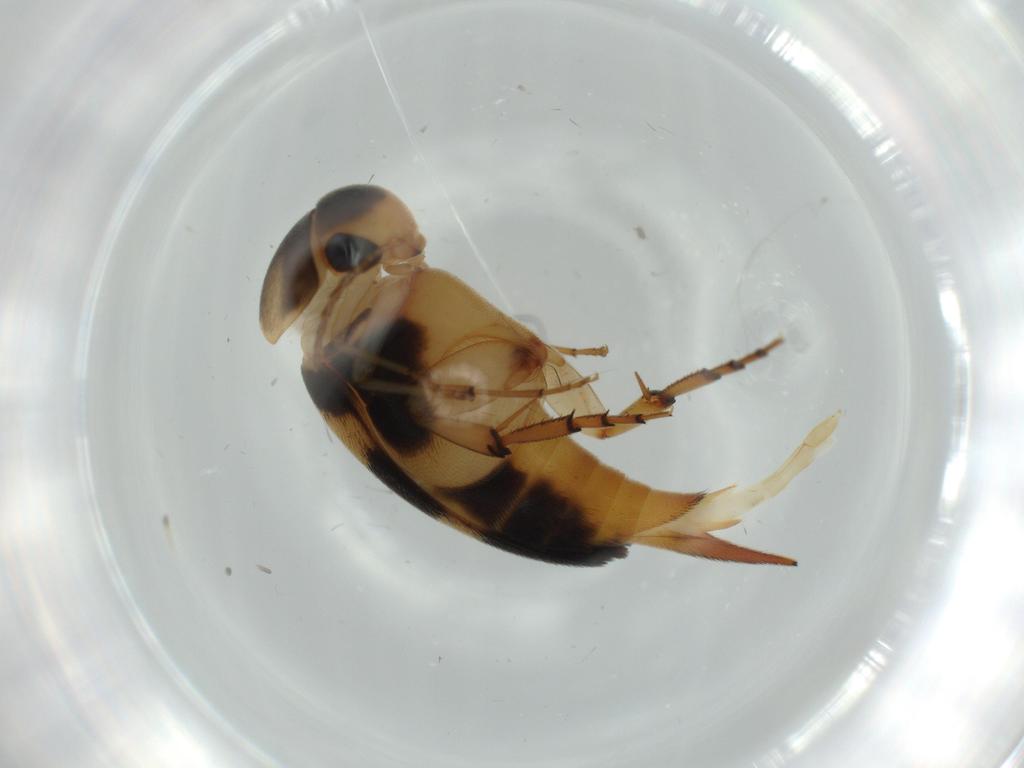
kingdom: Animalia
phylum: Arthropoda
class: Insecta
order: Coleoptera
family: Mordellidae
